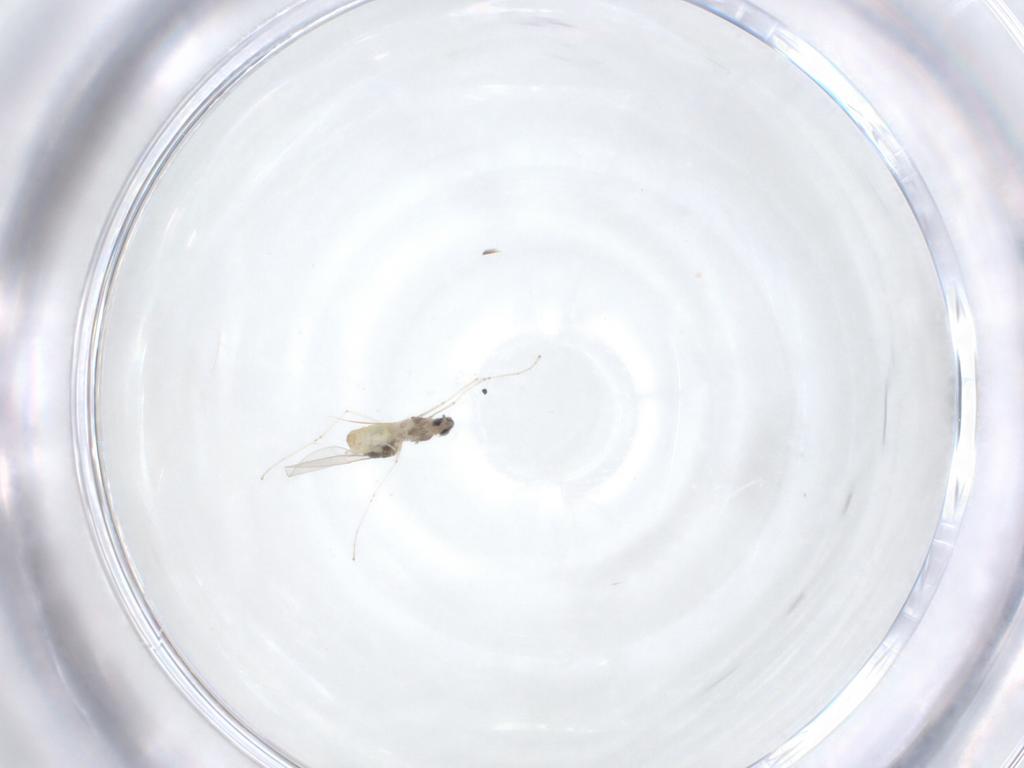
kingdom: Animalia
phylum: Arthropoda
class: Insecta
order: Diptera
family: Cecidomyiidae
